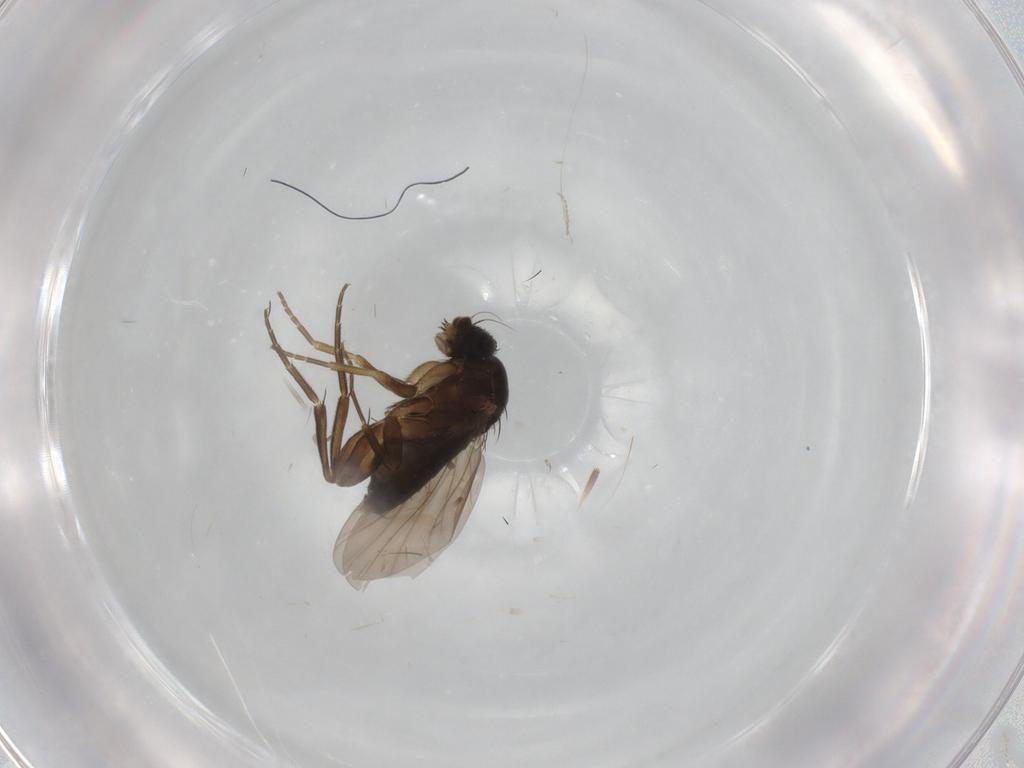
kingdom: Animalia
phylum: Arthropoda
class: Insecta
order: Diptera
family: Phoridae
